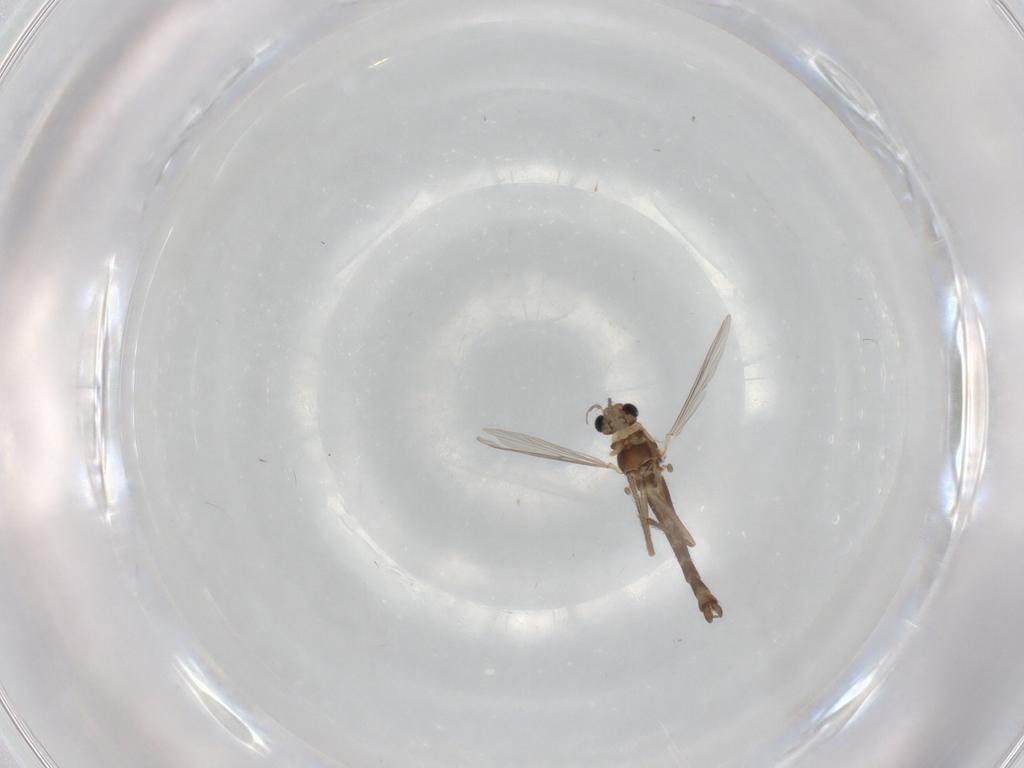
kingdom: Animalia
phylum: Arthropoda
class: Insecta
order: Diptera
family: Chironomidae
